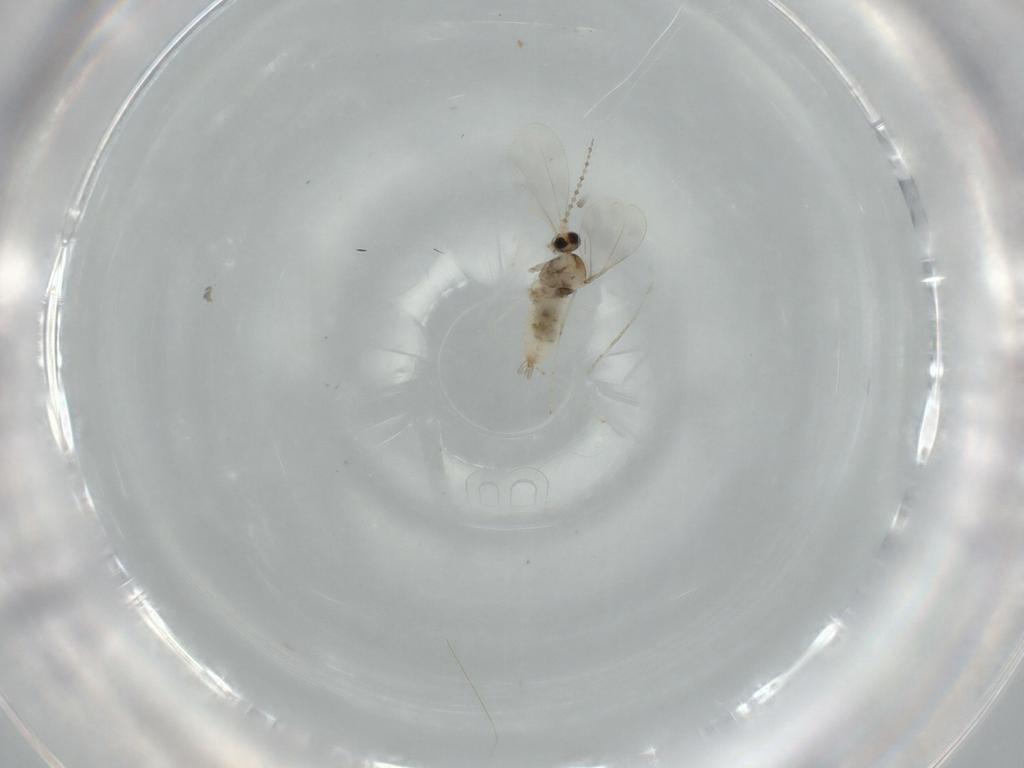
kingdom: Animalia
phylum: Arthropoda
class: Insecta
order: Diptera
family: Cecidomyiidae
